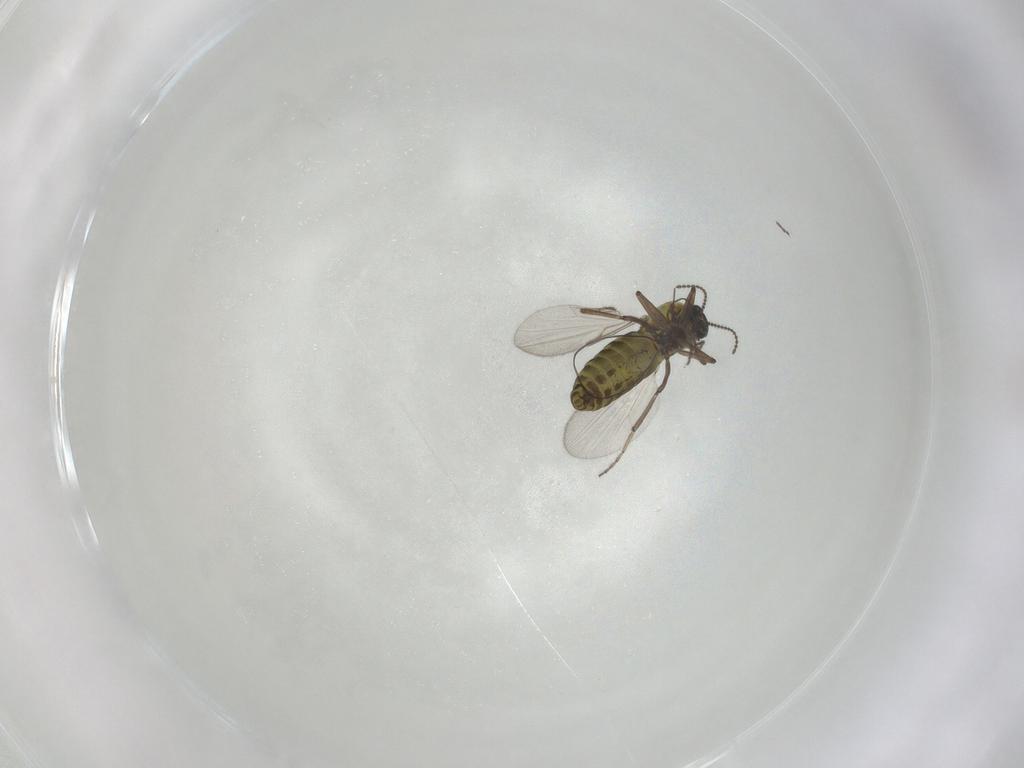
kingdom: Animalia
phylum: Arthropoda
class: Insecta
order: Diptera
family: Ceratopogonidae
